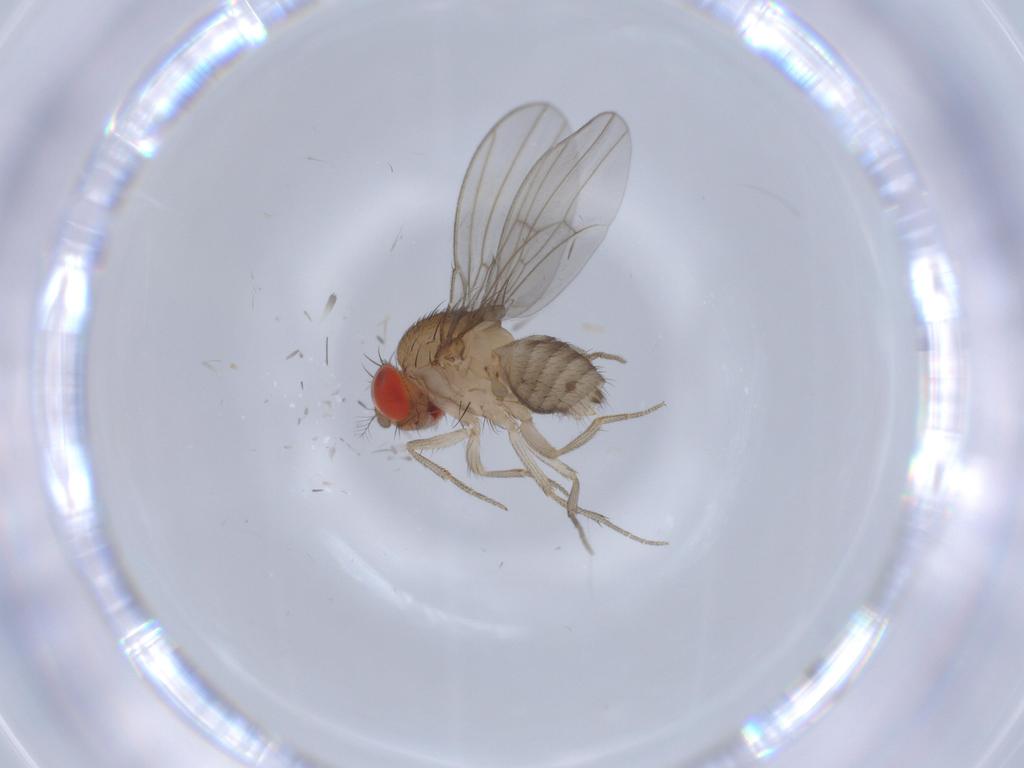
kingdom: Animalia
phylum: Arthropoda
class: Insecta
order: Diptera
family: Drosophilidae
